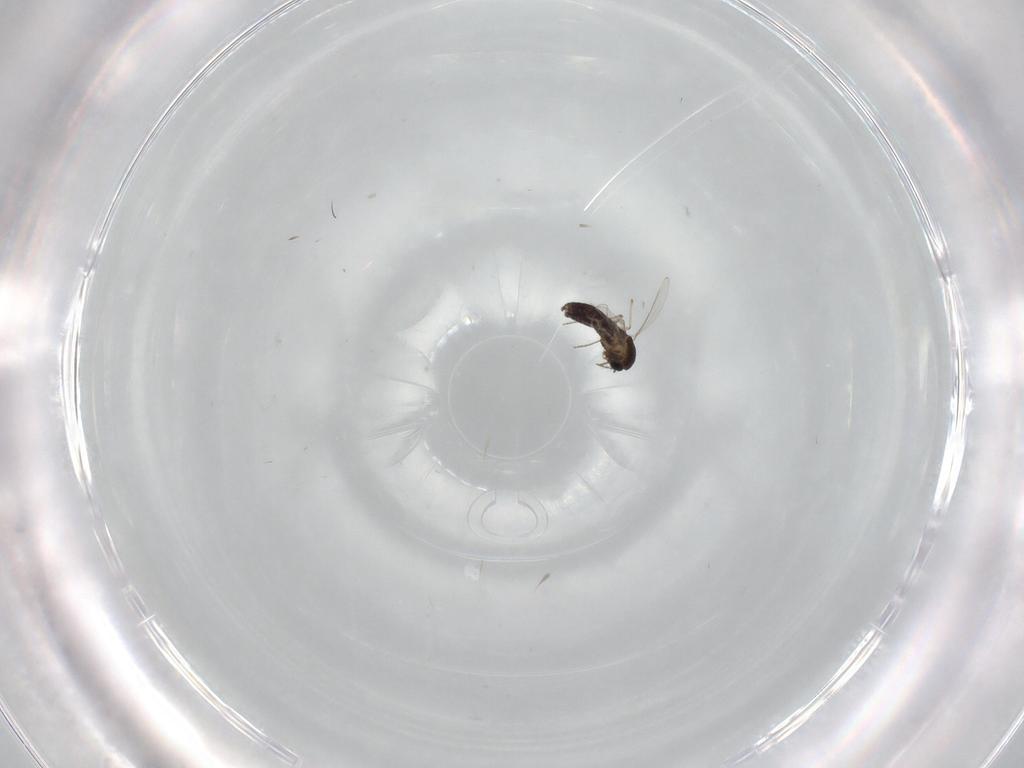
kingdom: Animalia
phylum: Arthropoda
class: Insecta
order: Diptera
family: Chironomidae
